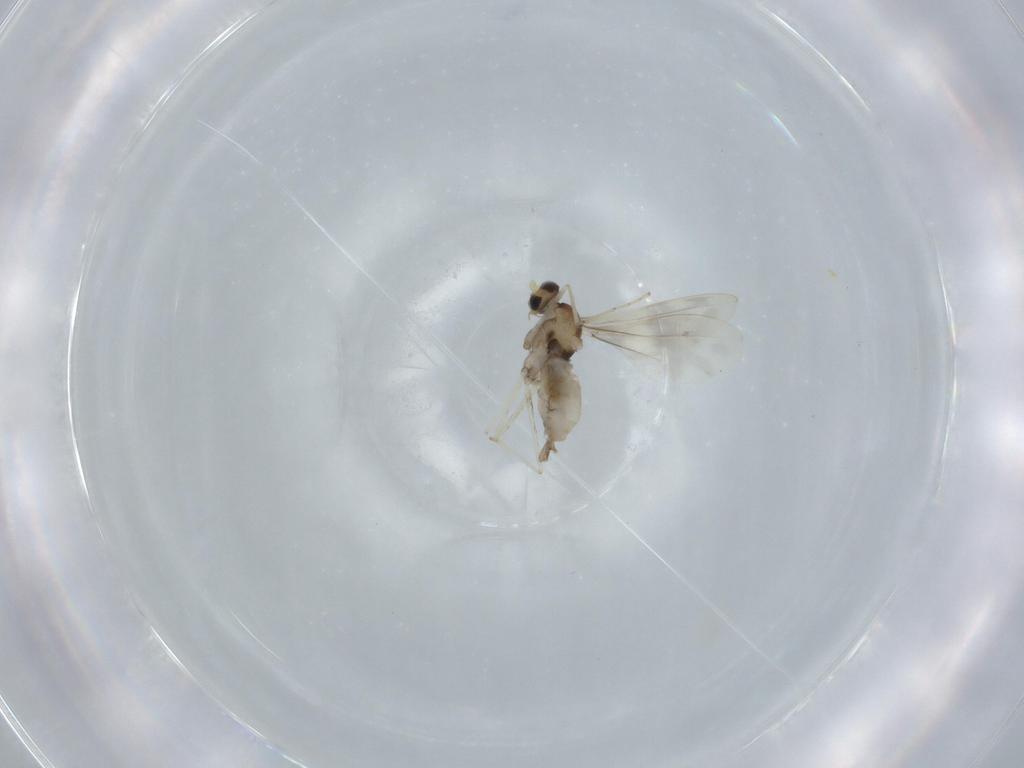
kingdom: Animalia
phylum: Arthropoda
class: Insecta
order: Diptera
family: Cecidomyiidae
